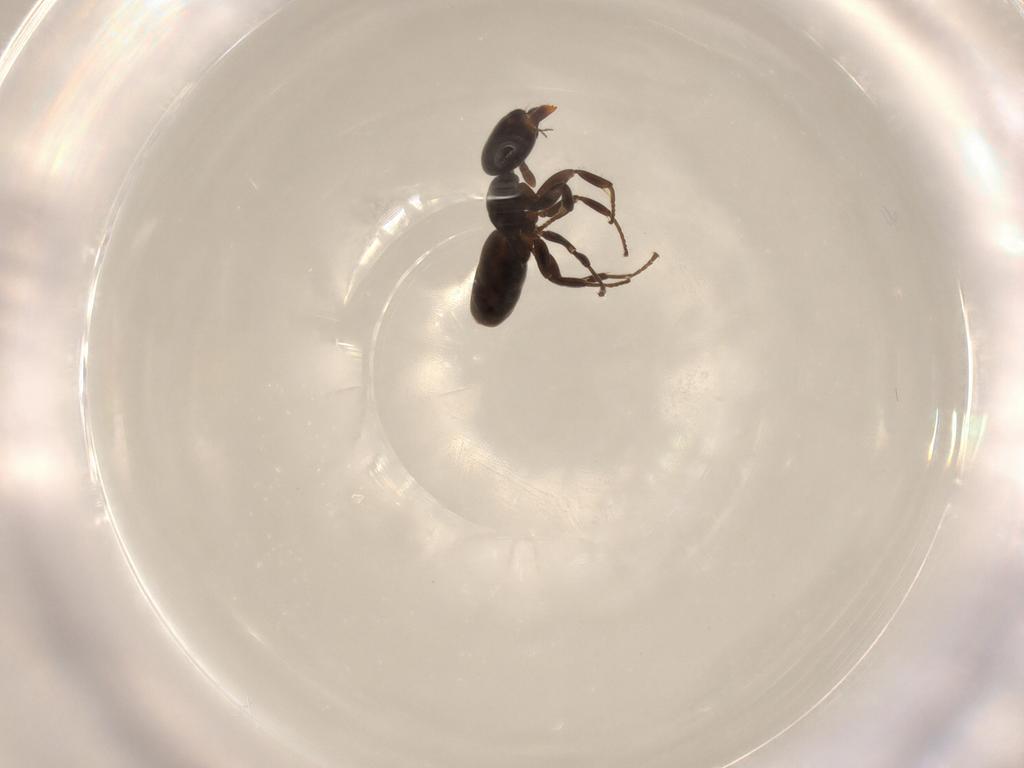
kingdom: Animalia
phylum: Arthropoda
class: Insecta
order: Hymenoptera
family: Formicidae
